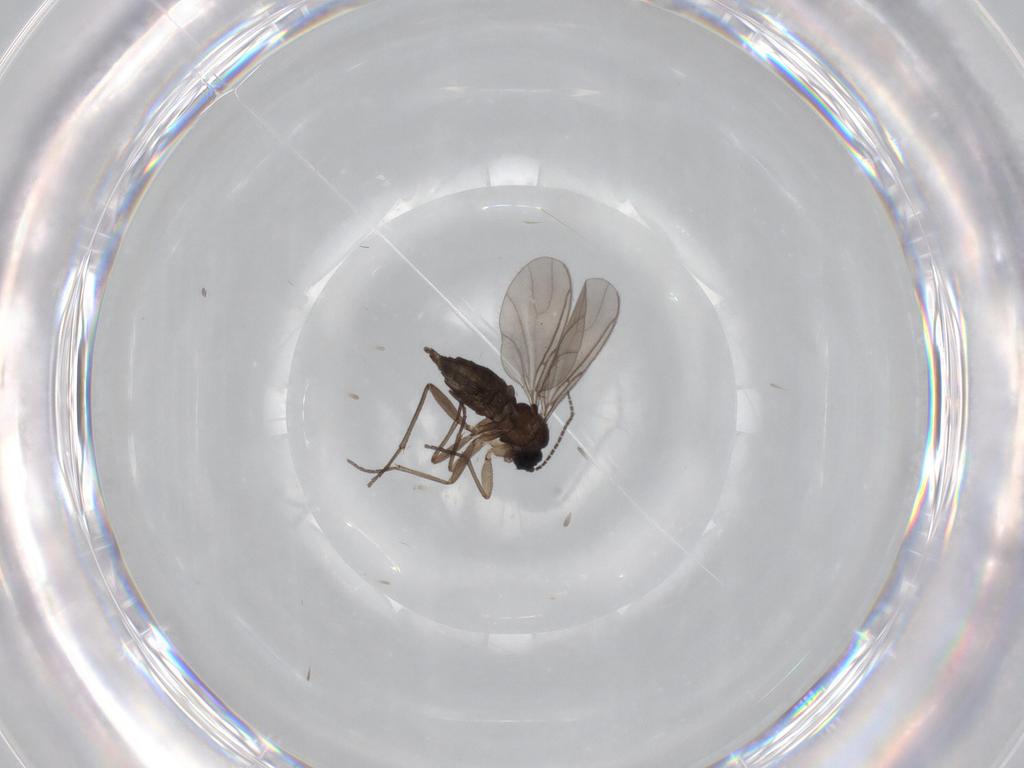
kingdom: Animalia
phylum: Arthropoda
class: Insecta
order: Diptera
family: Sciaridae
